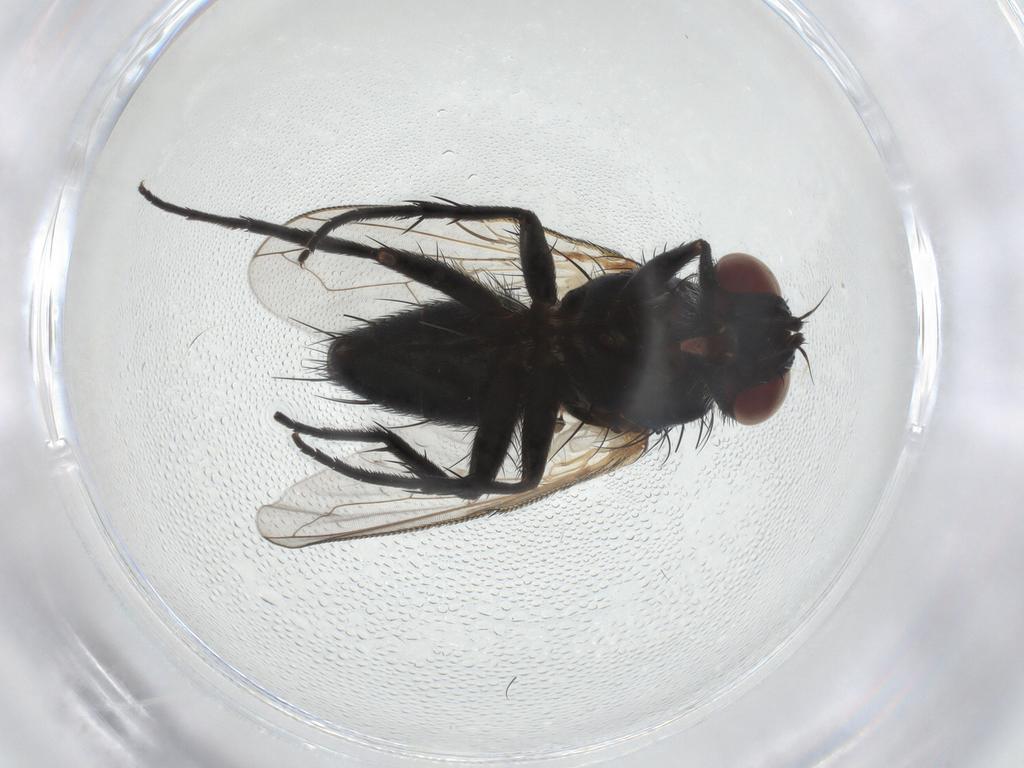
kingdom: Animalia
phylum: Arthropoda
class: Insecta
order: Diptera
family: Tachinidae
